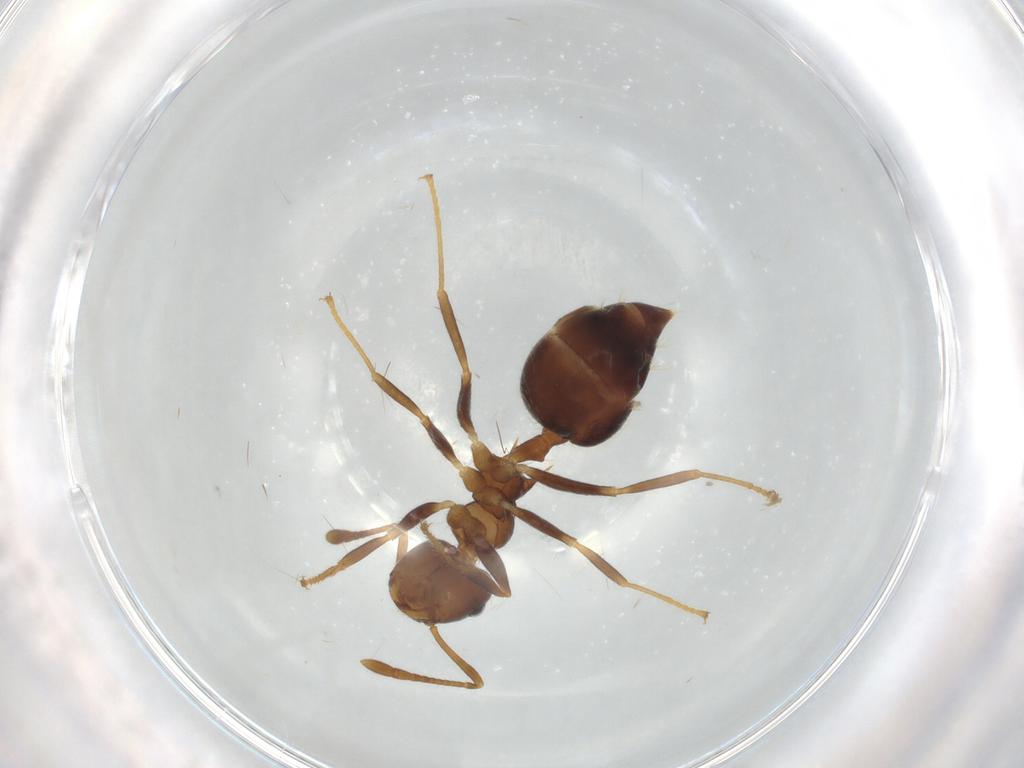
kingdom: Animalia
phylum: Arthropoda
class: Insecta
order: Hymenoptera
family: Formicidae
